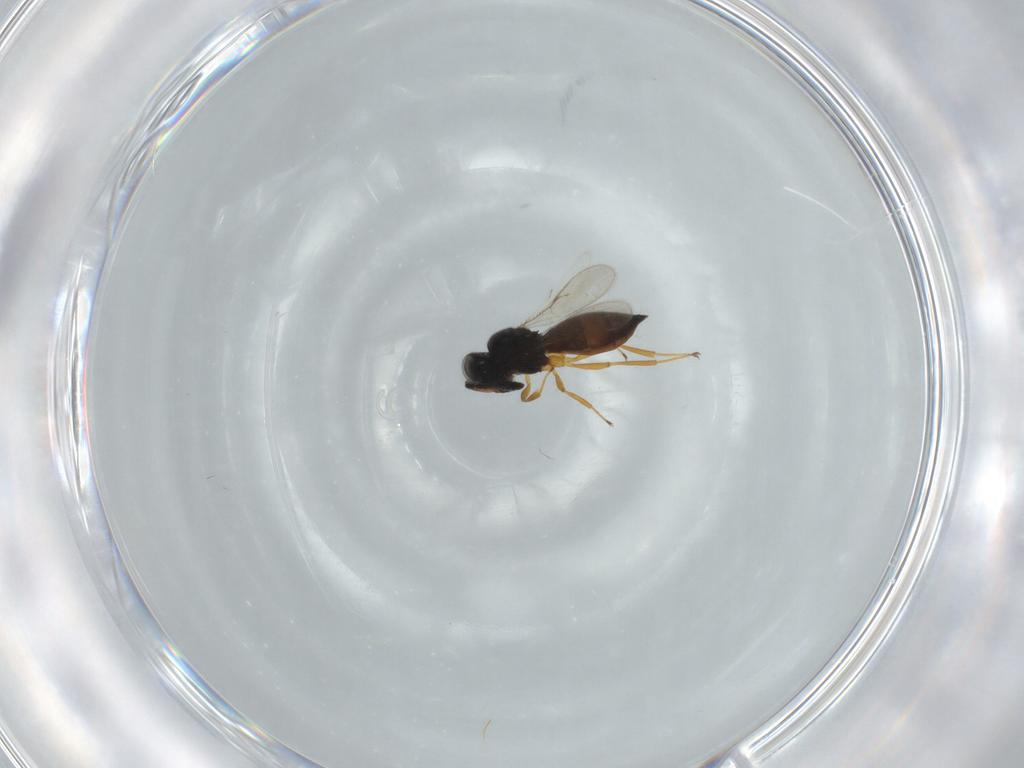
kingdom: Animalia
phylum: Arthropoda
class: Insecta
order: Hymenoptera
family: Scelionidae
